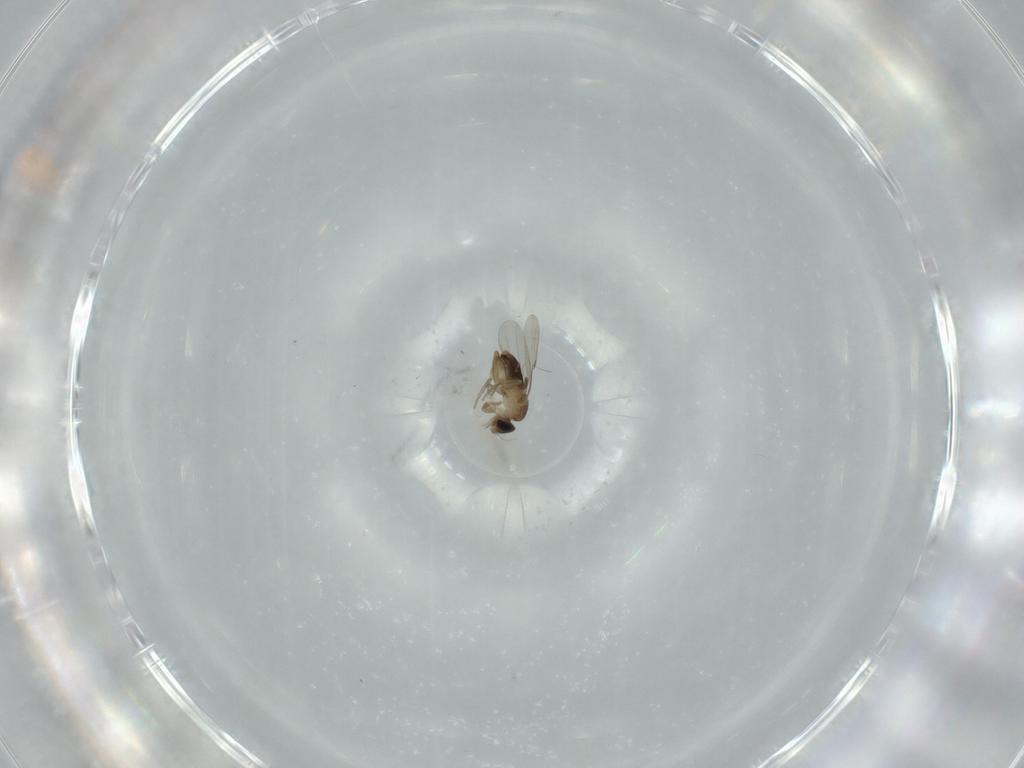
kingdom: Animalia
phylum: Arthropoda
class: Insecta
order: Diptera
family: Phoridae
